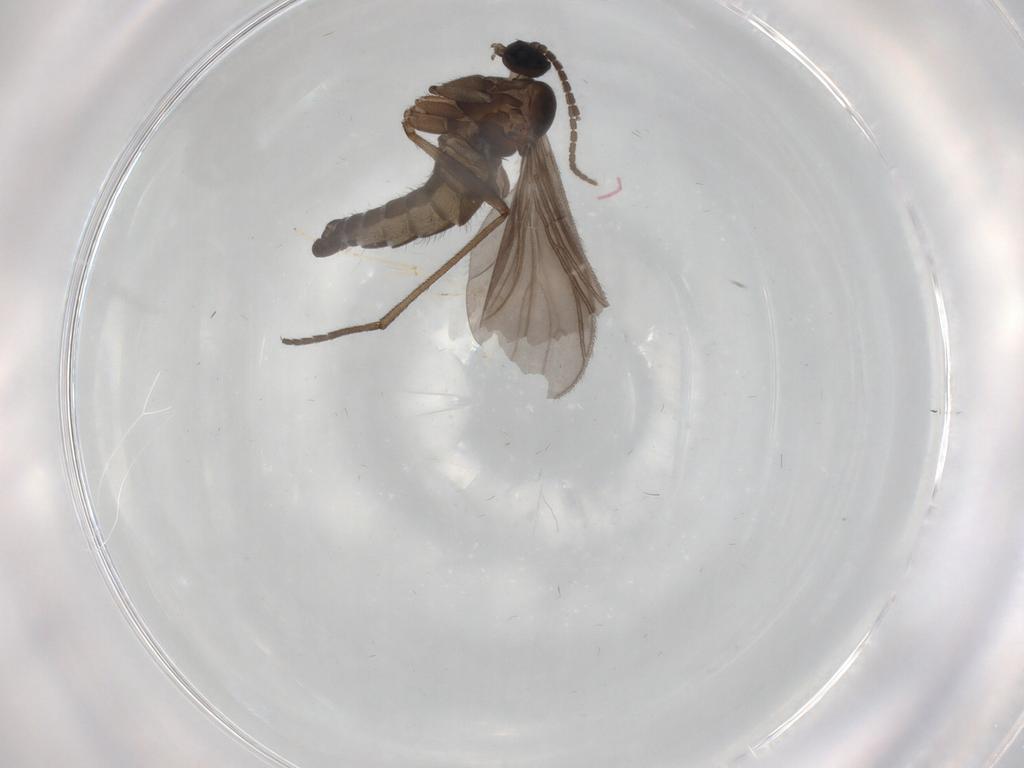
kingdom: Animalia
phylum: Arthropoda
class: Insecta
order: Diptera
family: Sciaridae
